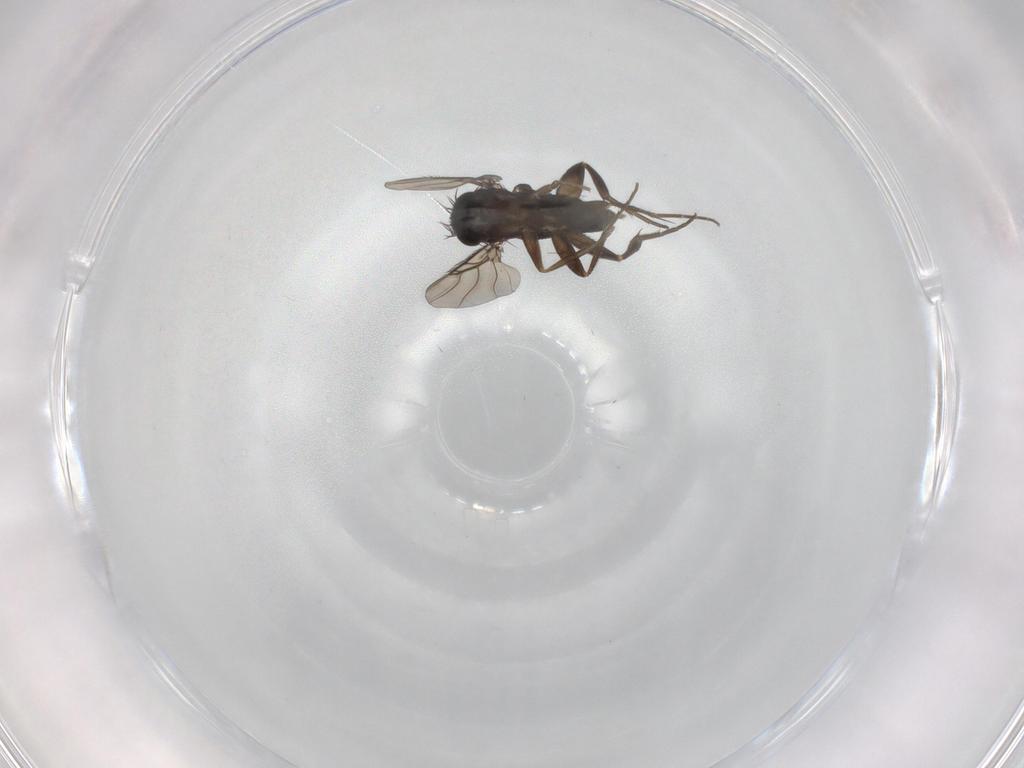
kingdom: Animalia
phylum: Arthropoda
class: Insecta
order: Diptera
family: Phoridae
